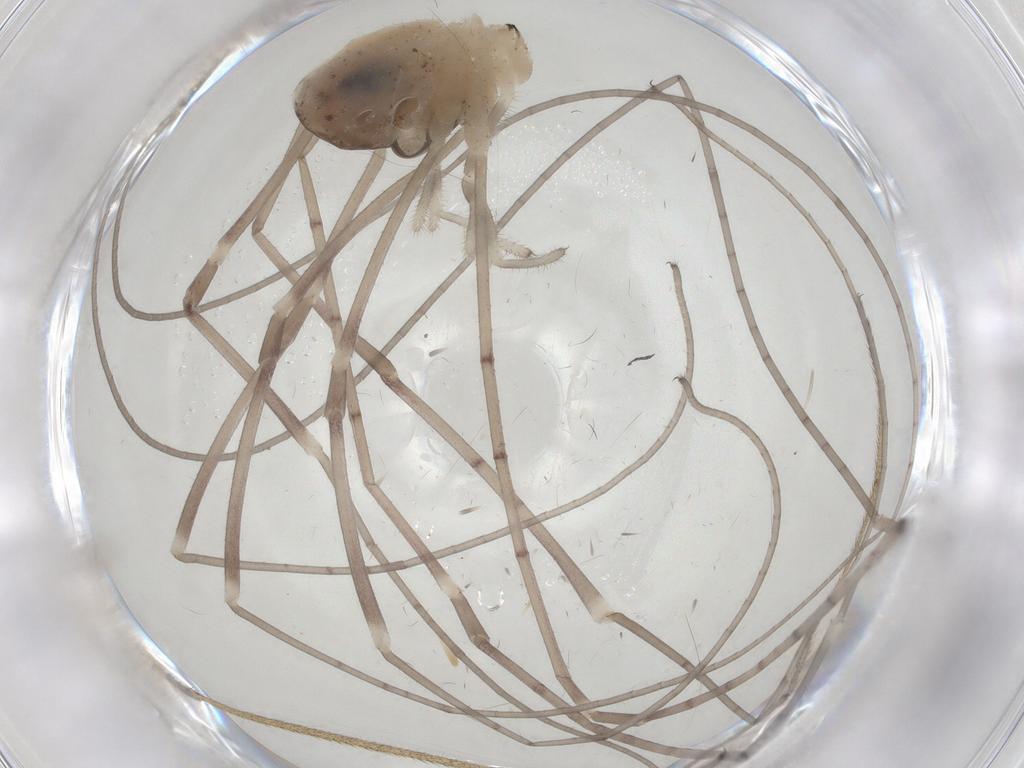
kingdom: Animalia
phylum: Arthropoda
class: Arachnida
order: Opiliones
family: Sclerosomatidae
